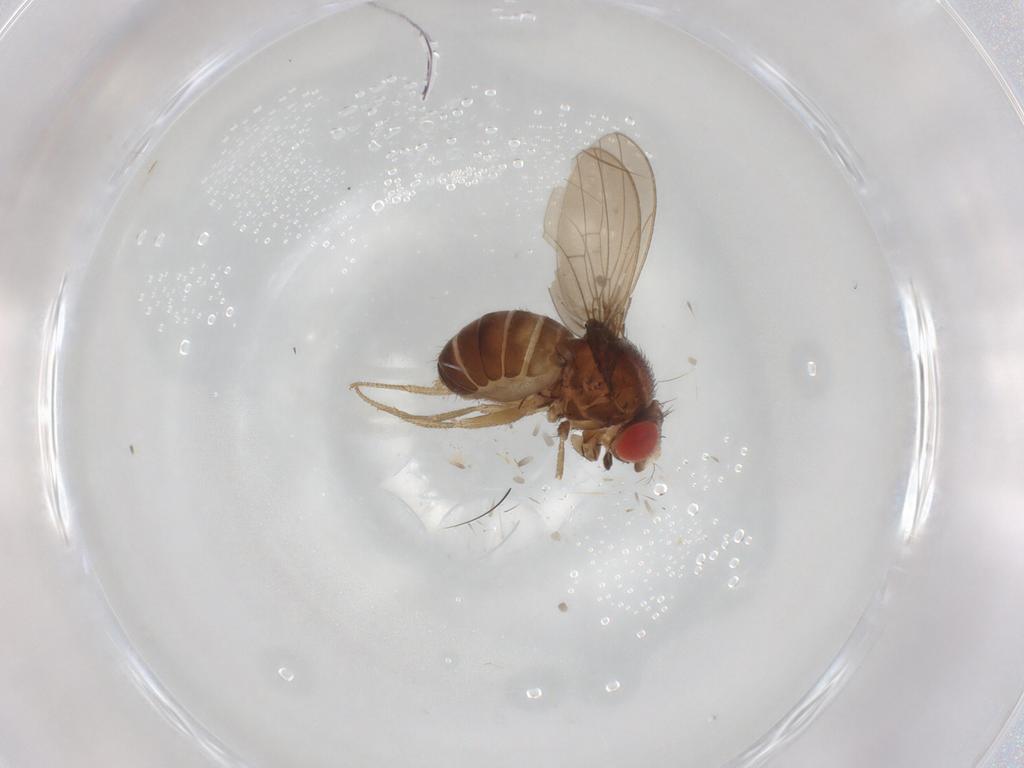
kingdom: Animalia
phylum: Arthropoda
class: Insecta
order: Diptera
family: Drosophilidae
